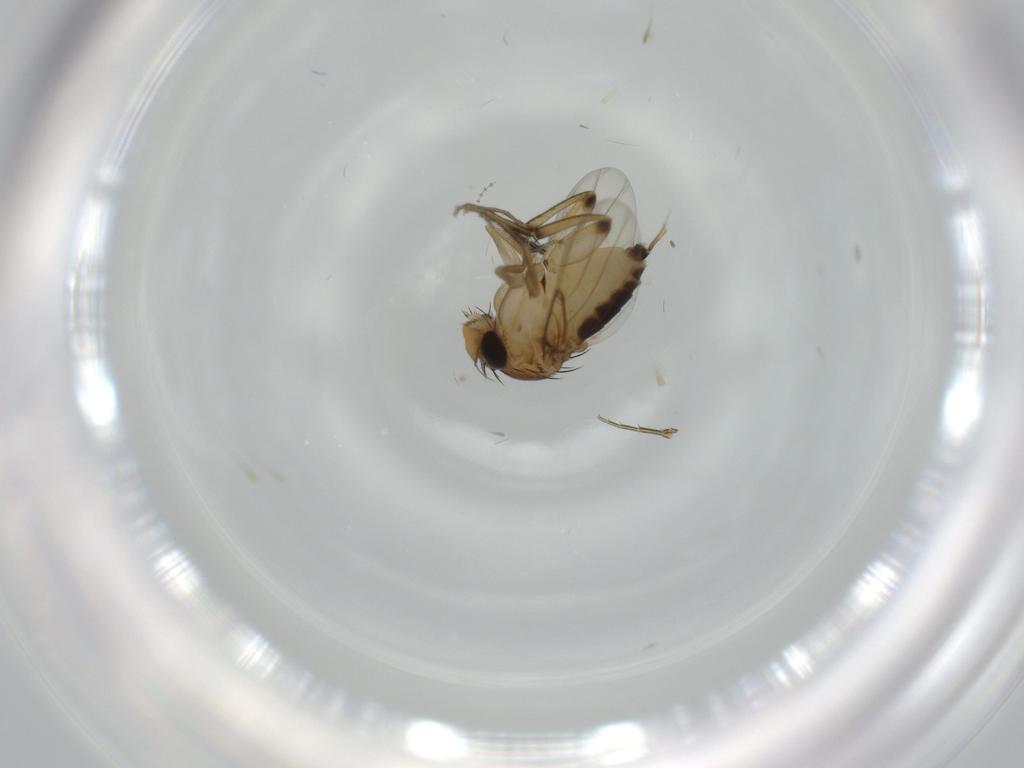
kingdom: Animalia
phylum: Arthropoda
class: Insecta
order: Diptera
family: Sciaridae
